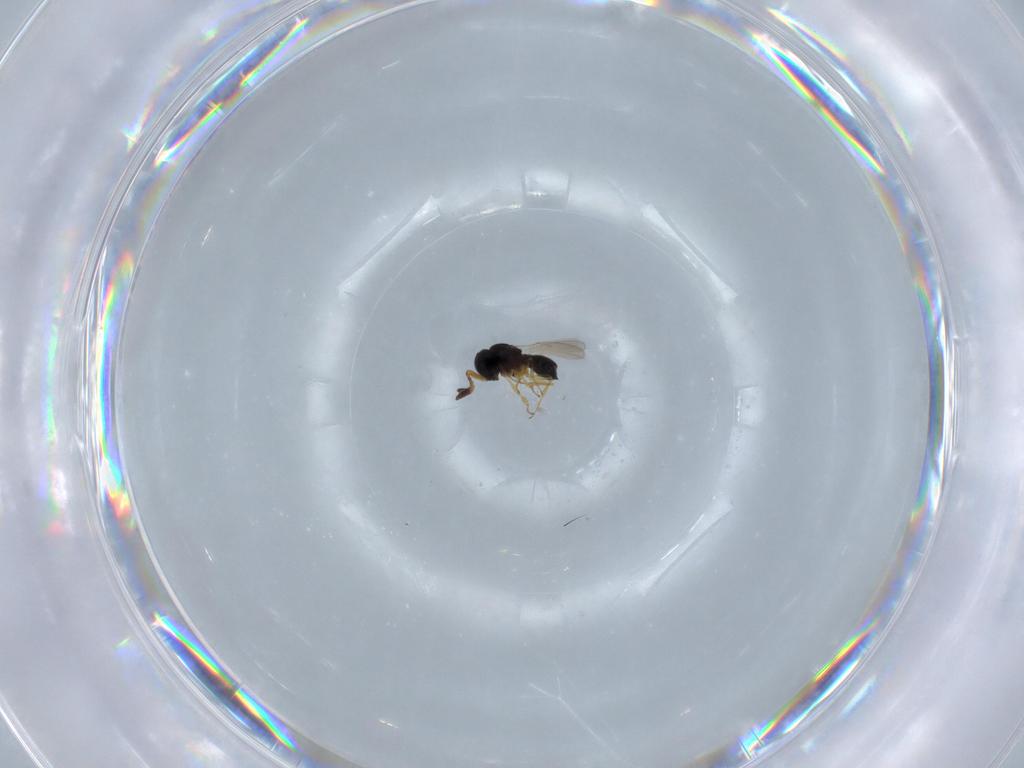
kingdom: Animalia
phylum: Arthropoda
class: Insecta
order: Hymenoptera
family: Scelionidae
